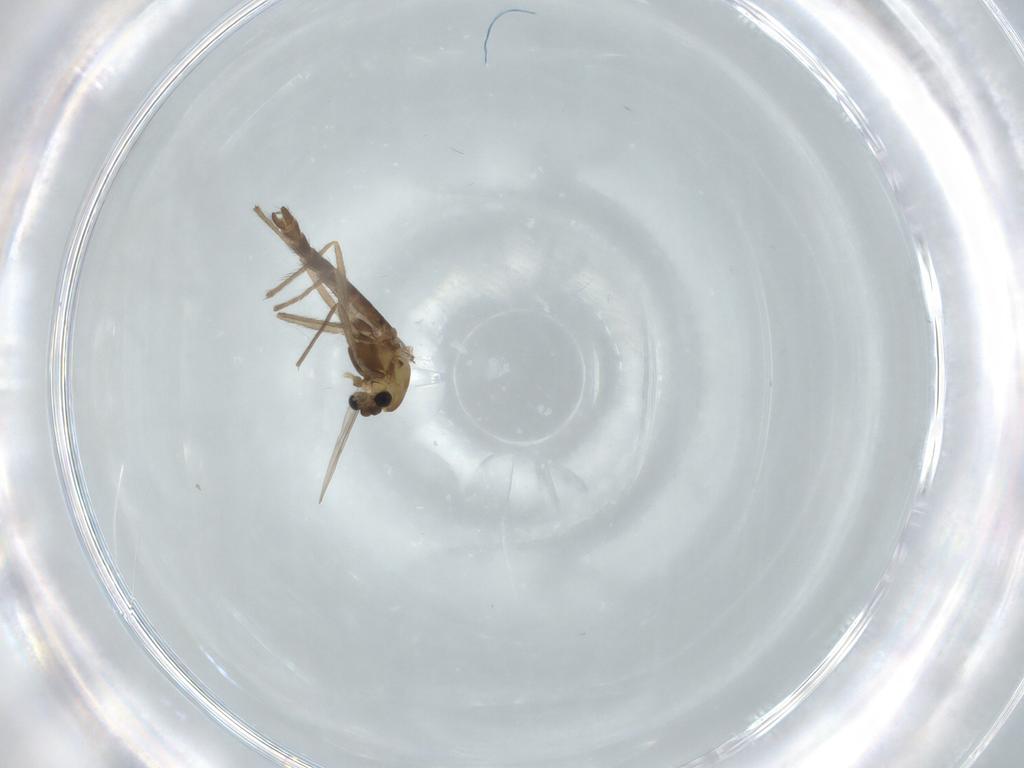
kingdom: Animalia
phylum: Arthropoda
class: Insecta
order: Diptera
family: Chironomidae
